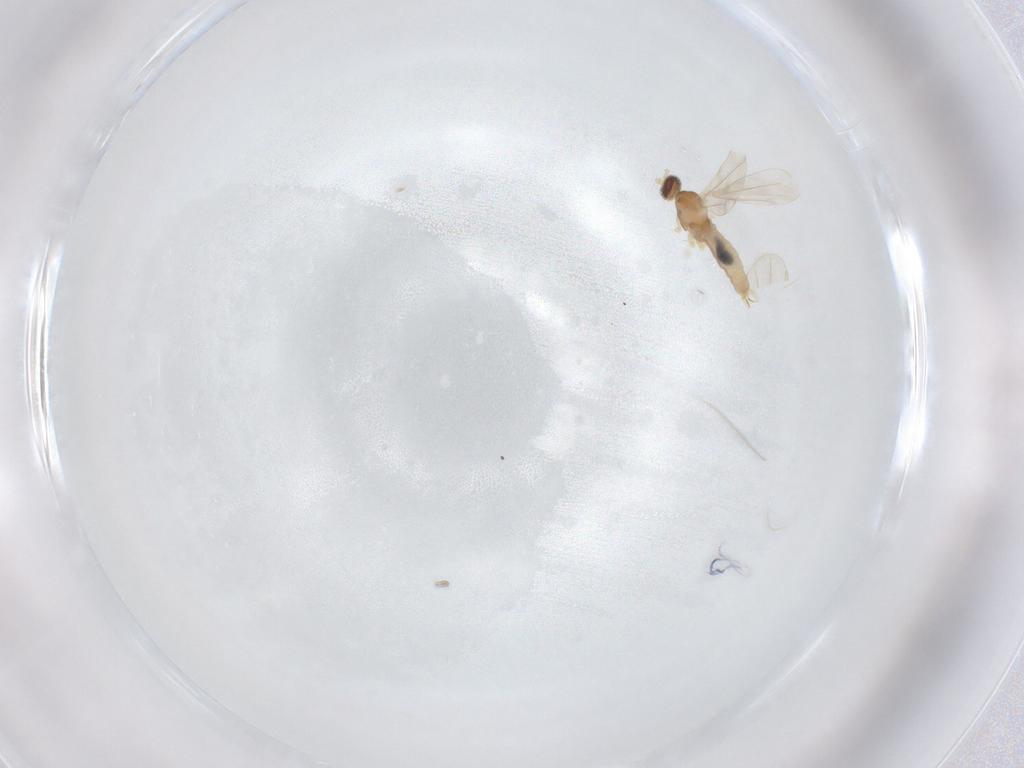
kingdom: Animalia
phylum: Arthropoda
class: Insecta
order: Diptera
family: Cecidomyiidae
